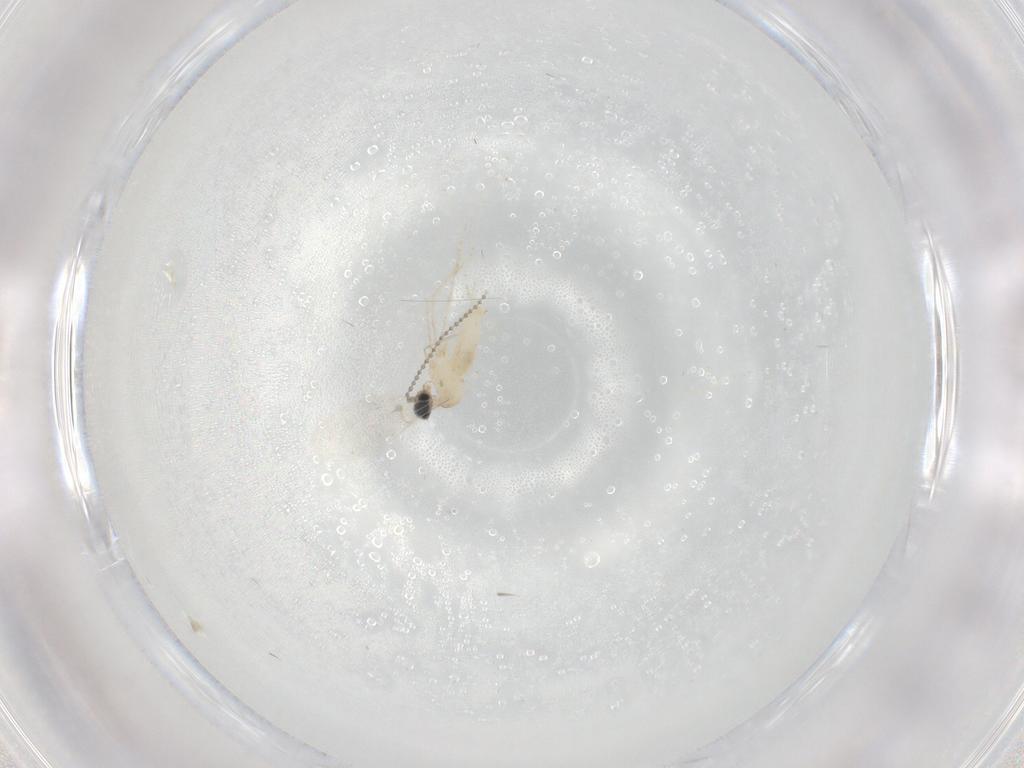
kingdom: Animalia
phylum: Arthropoda
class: Insecta
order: Diptera
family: Cecidomyiidae
